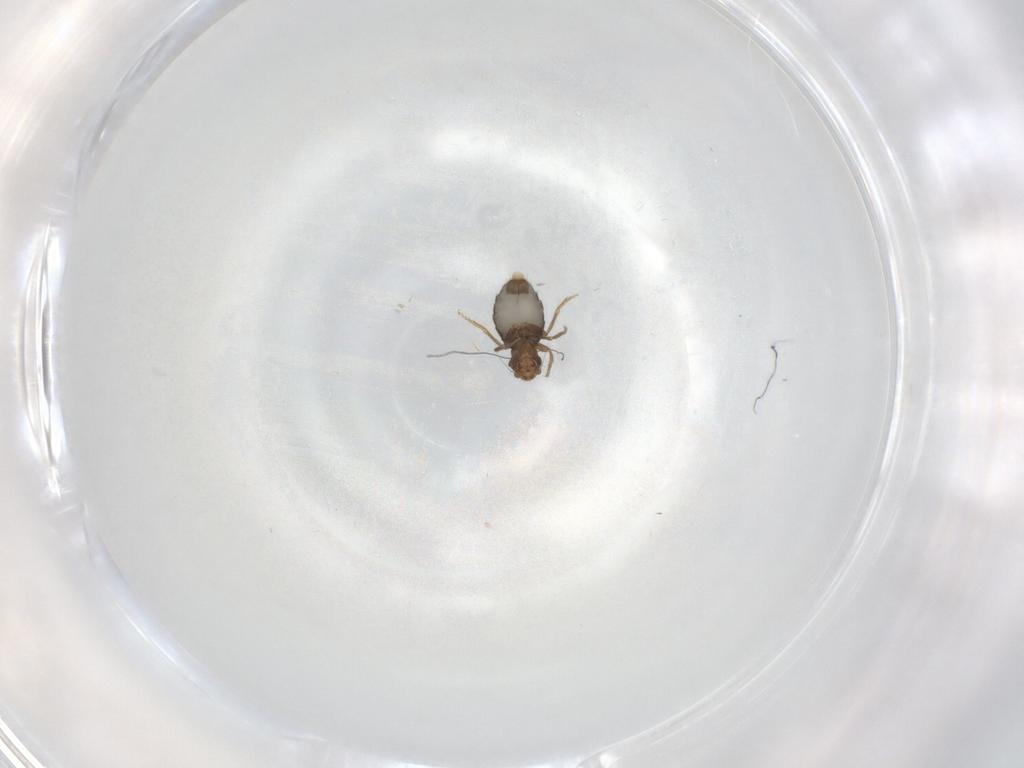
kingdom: Animalia
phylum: Arthropoda
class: Insecta
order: Diptera
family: Phoridae
